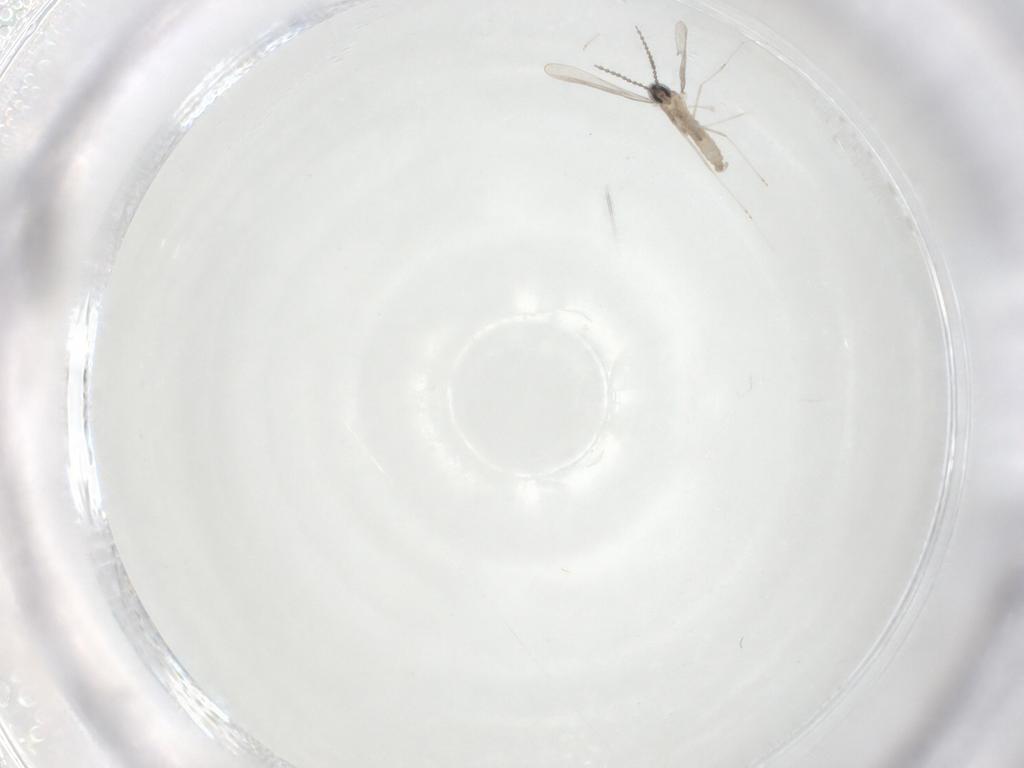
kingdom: Animalia
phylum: Arthropoda
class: Insecta
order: Diptera
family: Cecidomyiidae
